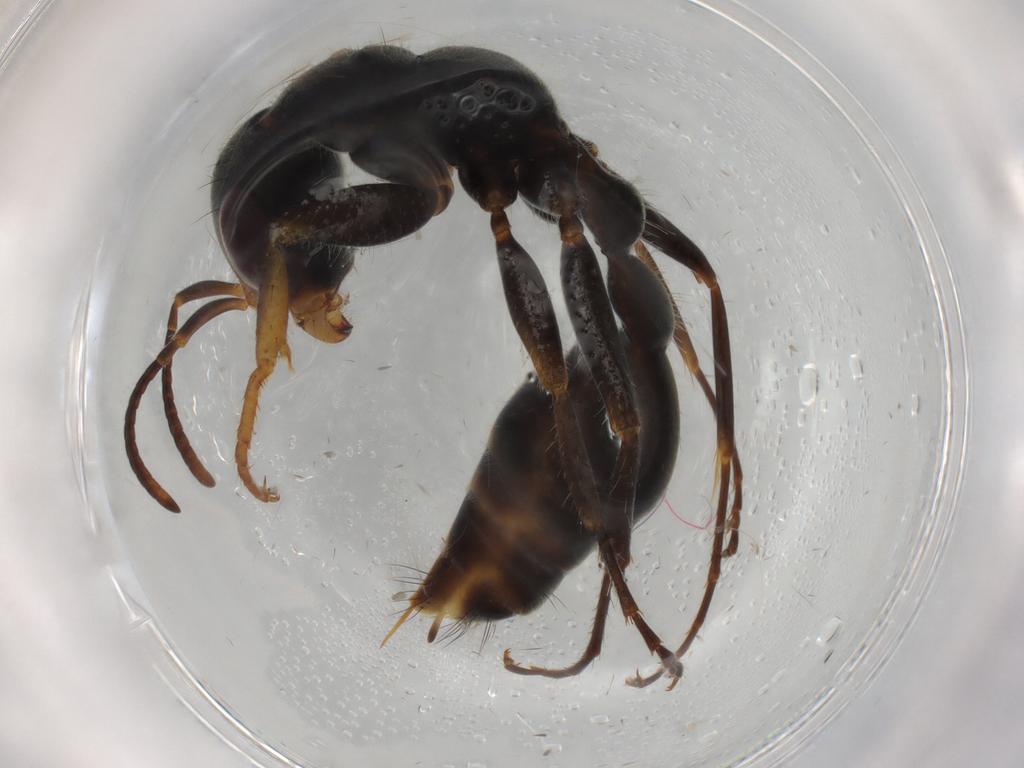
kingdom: Animalia
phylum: Arthropoda
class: Insecta
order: Hymenoptera
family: Formicidae
